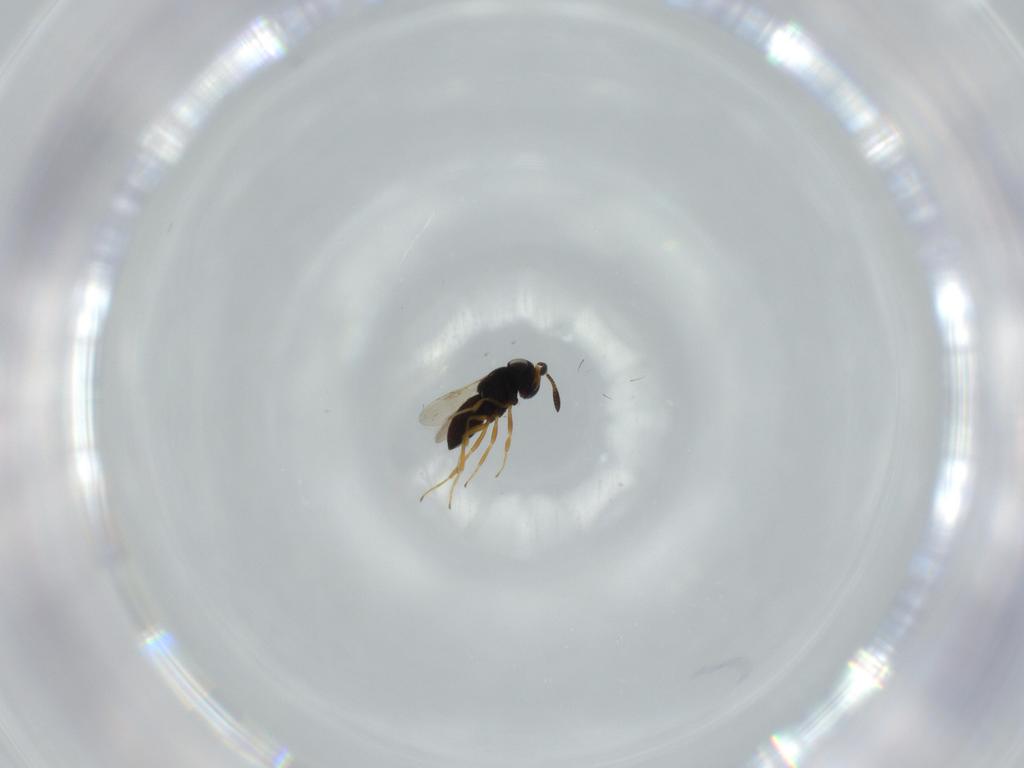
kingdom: Animalia
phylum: Arthropoda
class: Insecta
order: Hymenoptera
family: Scelionidae
